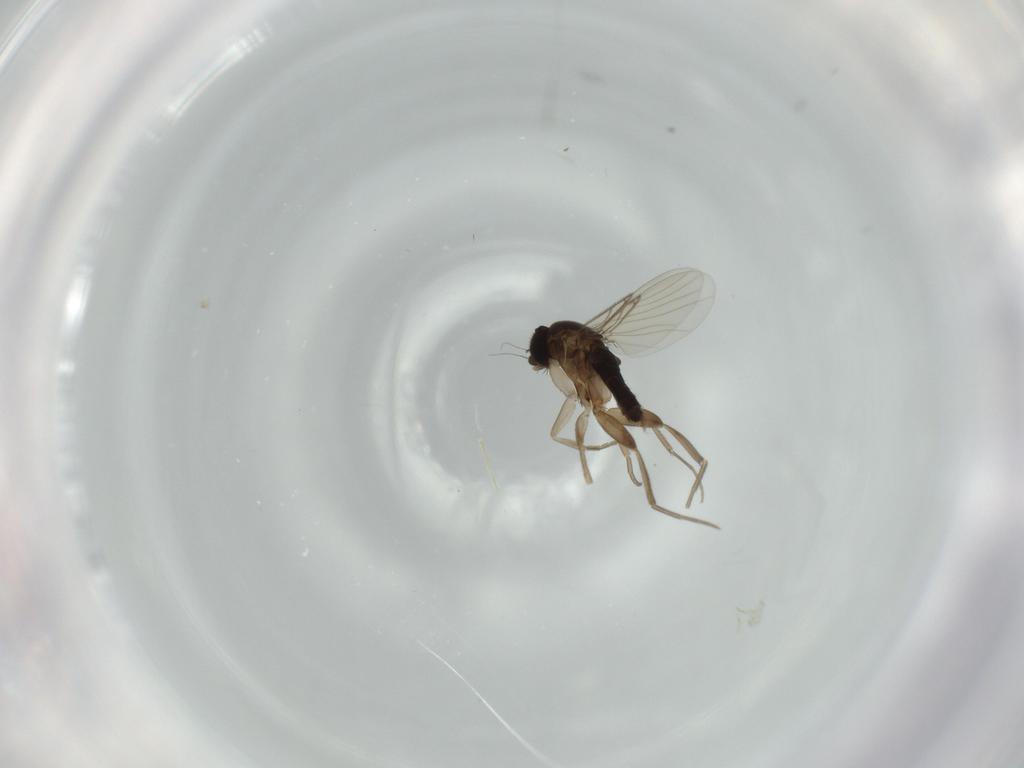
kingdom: Animalia
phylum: Arthropoda
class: Insecta
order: Diptera
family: Phoridae
